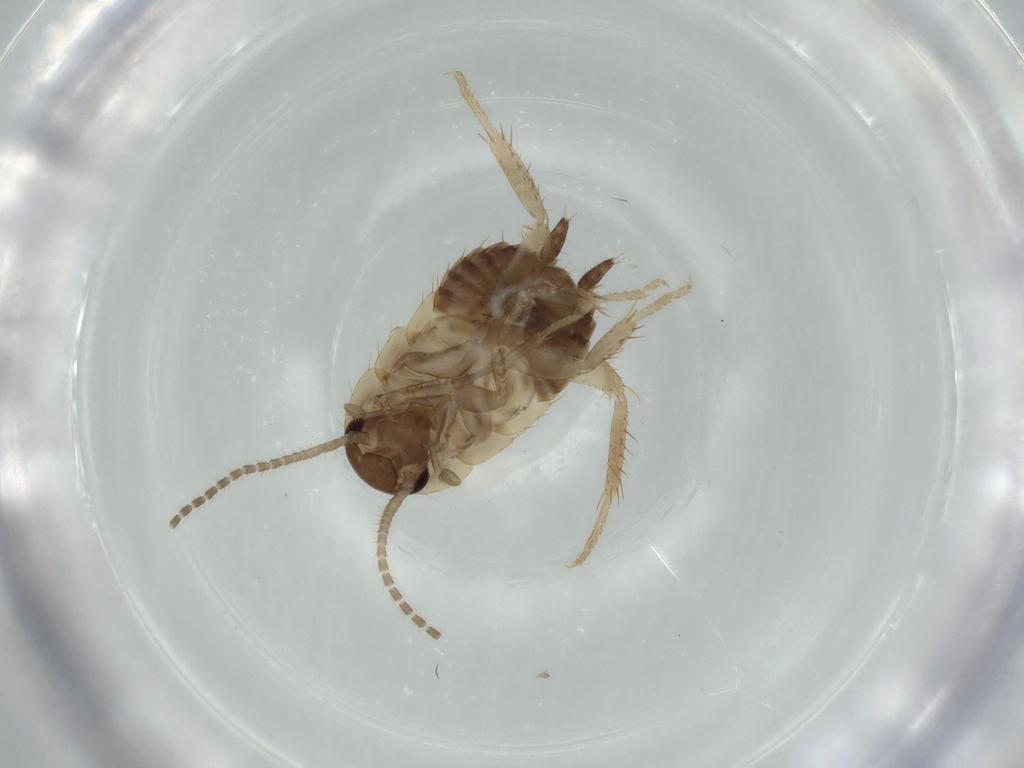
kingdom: Animalia
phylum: Arthropoda
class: Insecta
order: Blattodea
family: Ectobiidae
